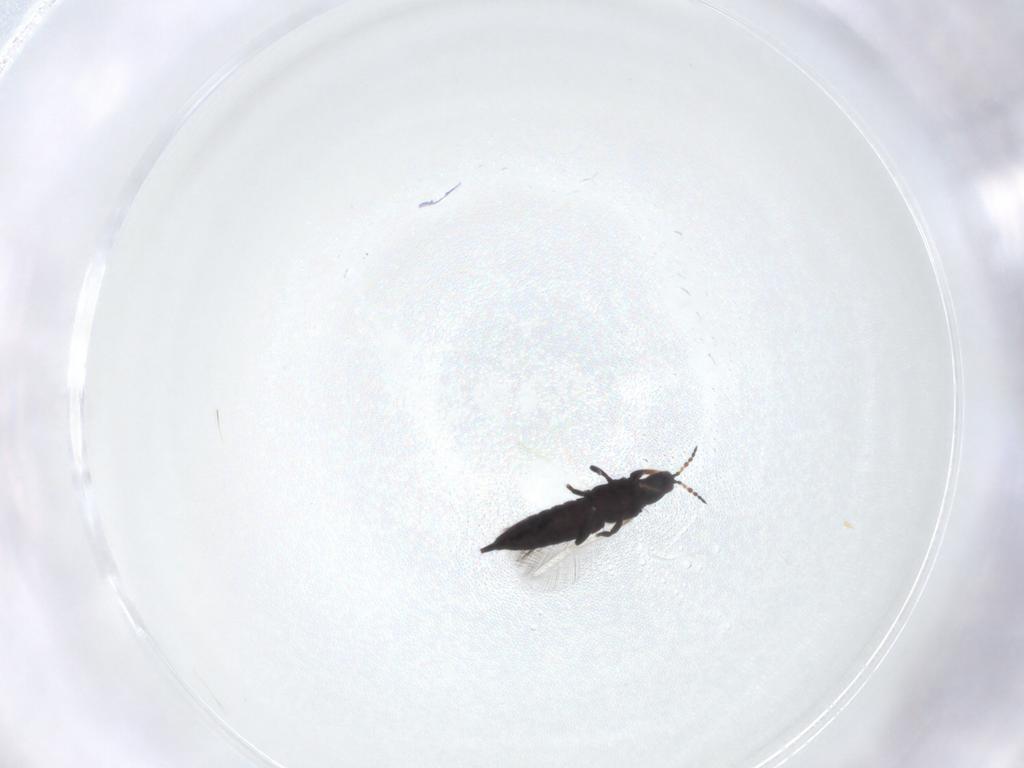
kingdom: Animalia
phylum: Arthropoda
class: Insecta
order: Thysanoptera
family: Phlaeothripidae
